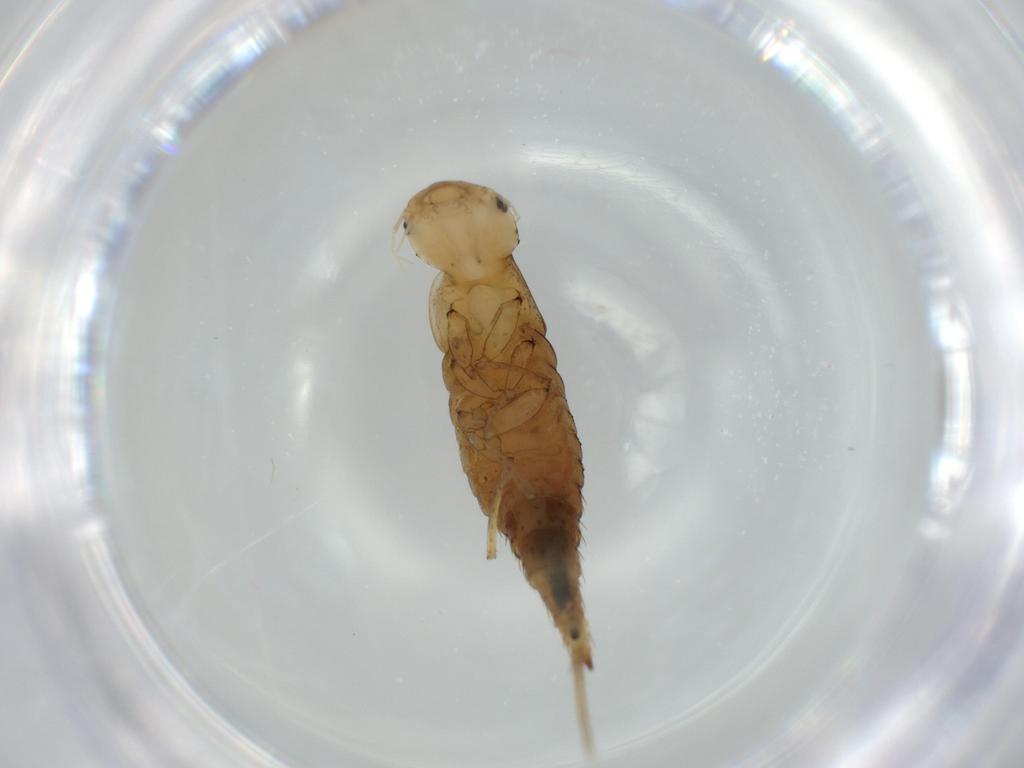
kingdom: Animalia
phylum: Arthropoda
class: Insecta
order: Coleoptera
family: Dytiscidae
